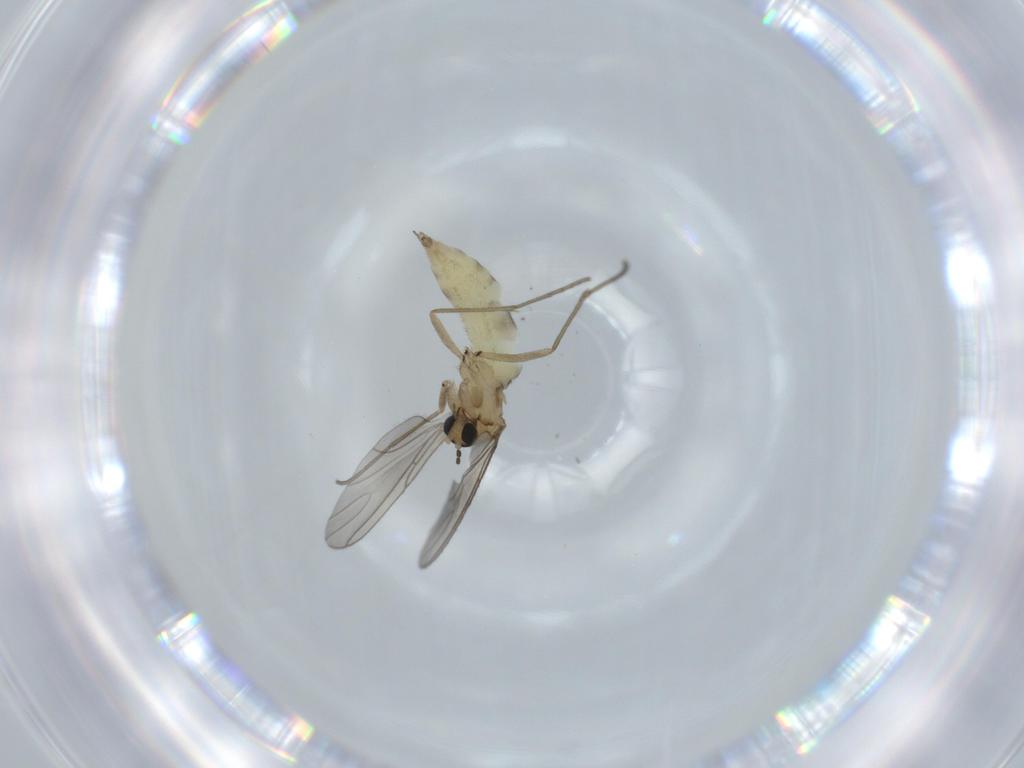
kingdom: Animalia
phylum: Arthropoda
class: Insecta
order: Diptera
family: Sciaridae
